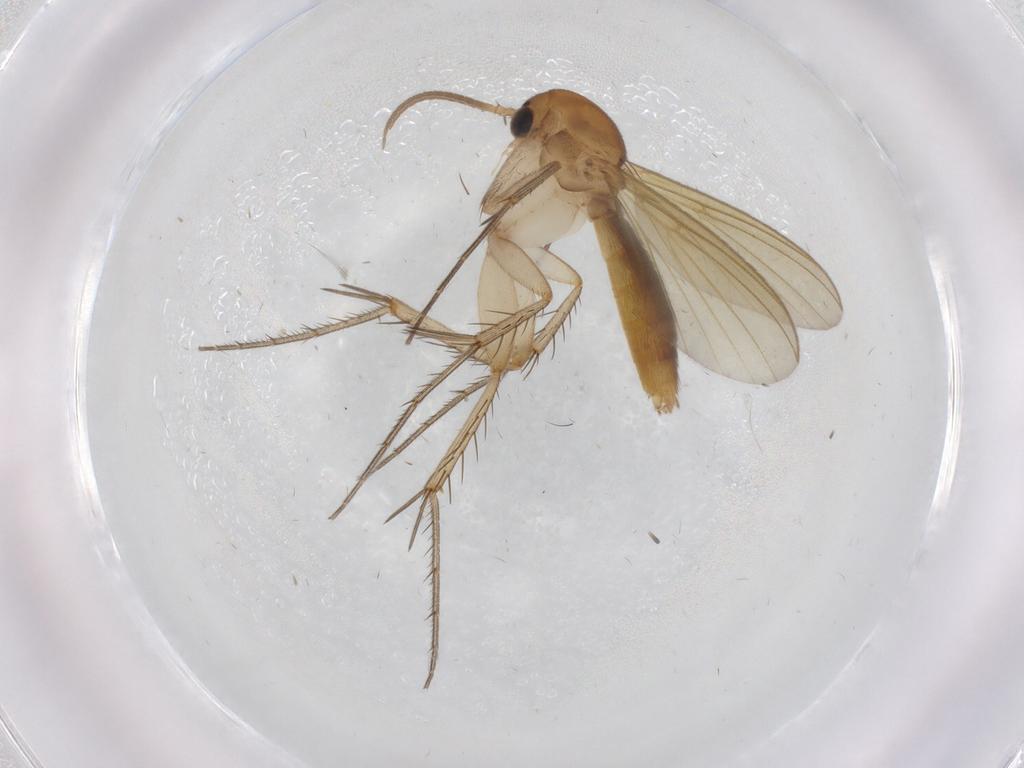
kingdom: Animalia
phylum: Arthropoda
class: Insecta
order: Diptera
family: Mycetophilidae
